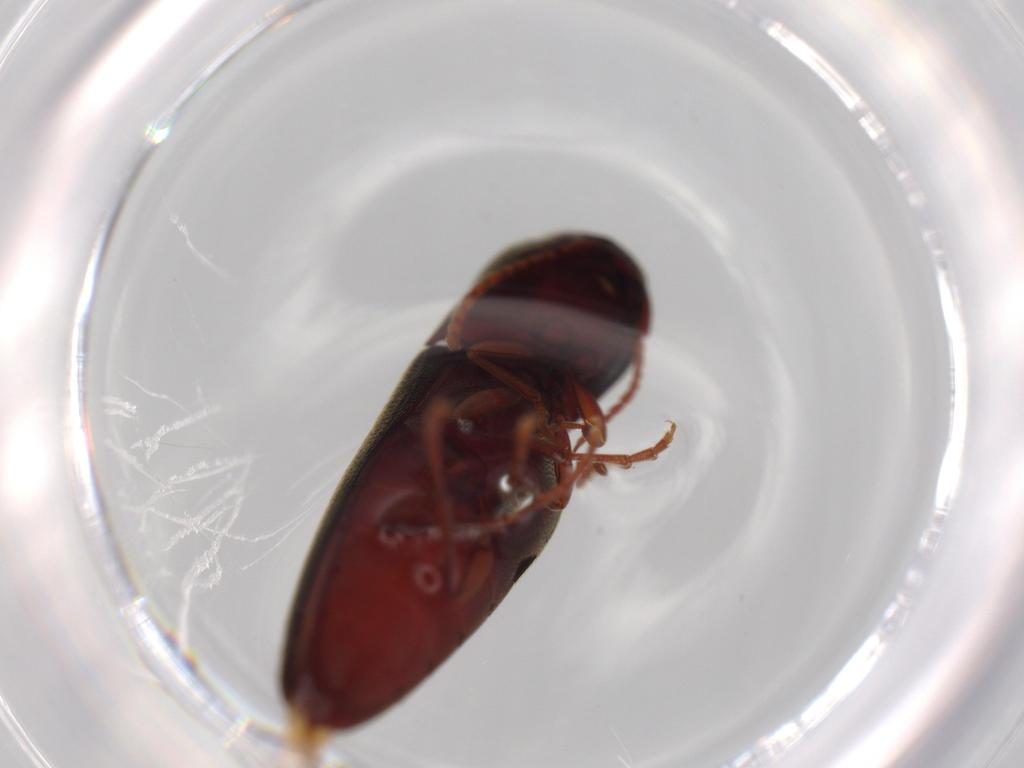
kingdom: Animalia
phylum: Arthropoda
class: Insecta
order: Coleoptera
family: Eucnemidae
